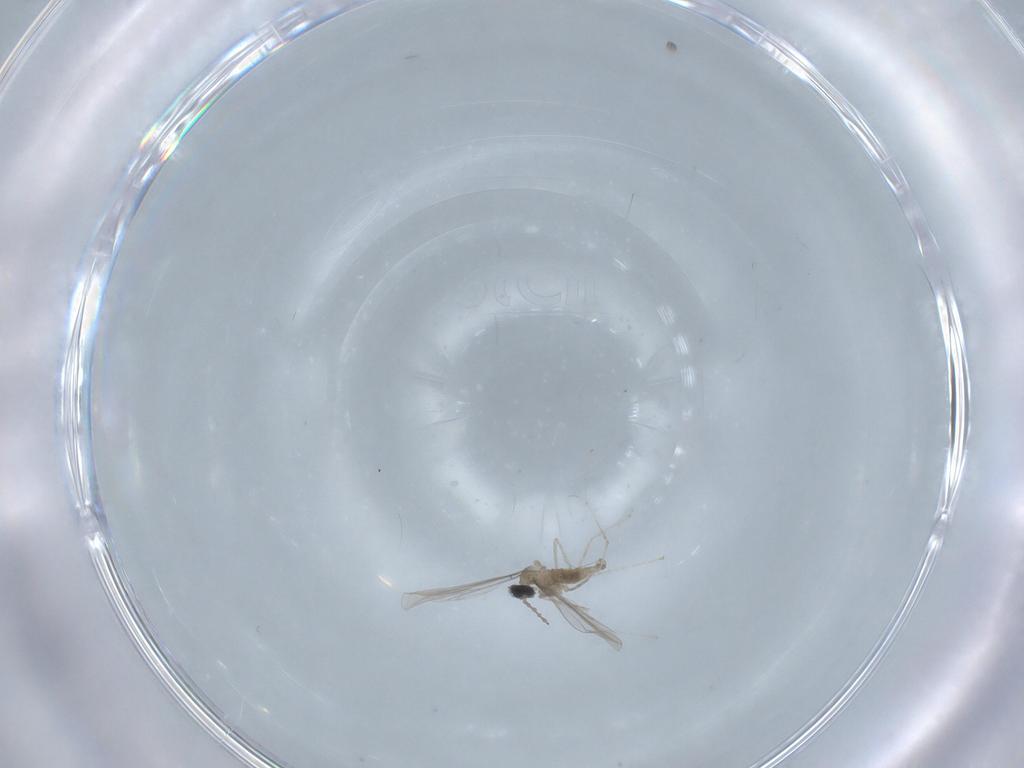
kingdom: Animalia
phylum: Arthropoda
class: Insecta
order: Diptera
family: Cecidomyiidae
